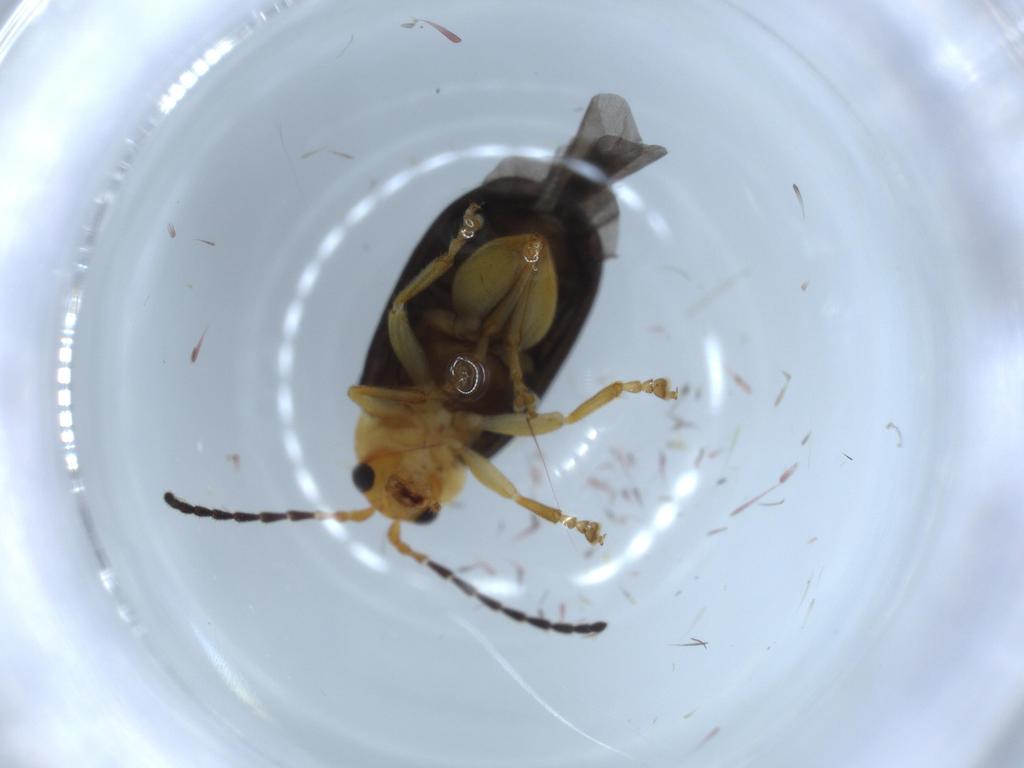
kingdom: Animalia
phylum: Arthropoda
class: Insecta
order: Coleoptera
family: Chrysomelidae
